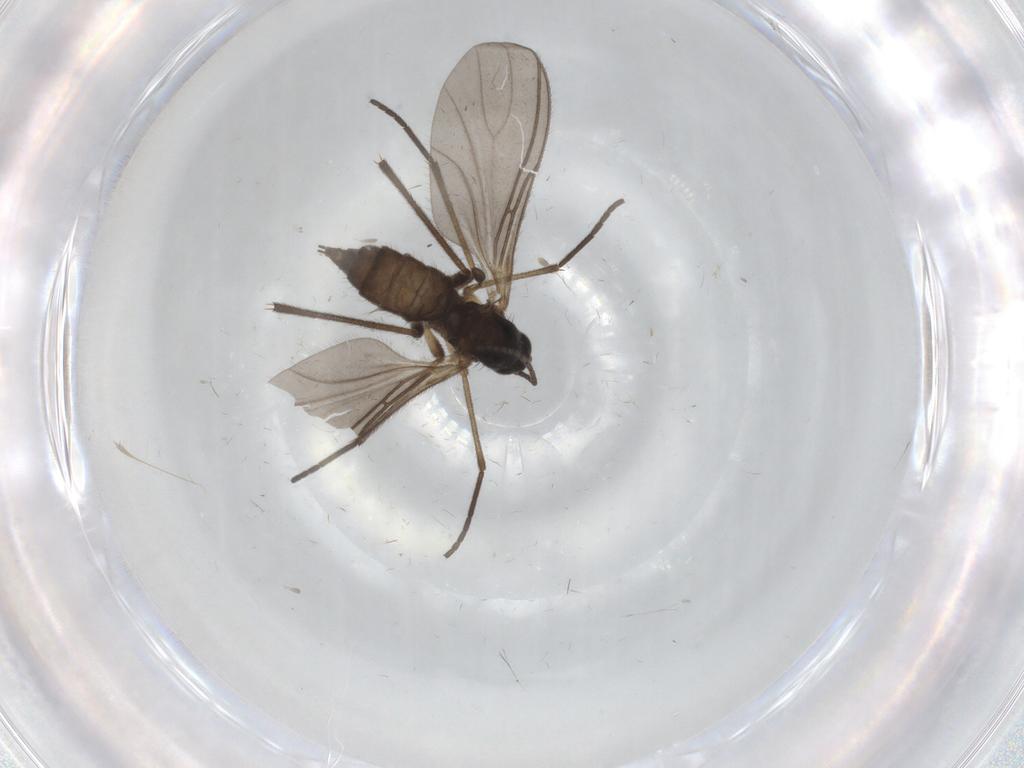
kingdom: Animalia
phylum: Arthropoda
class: Insecta
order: Diptera
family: Sciaridae
